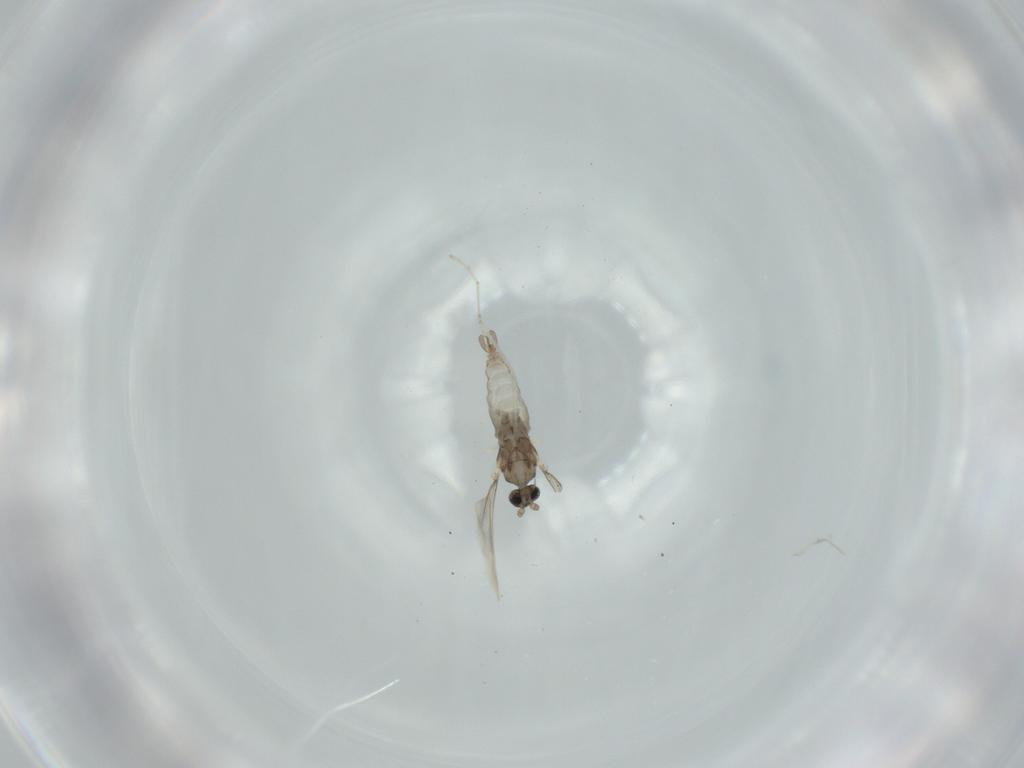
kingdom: Animalia
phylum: Arthropoda
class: Insecta
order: Diptera
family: Cecidomyiidae
